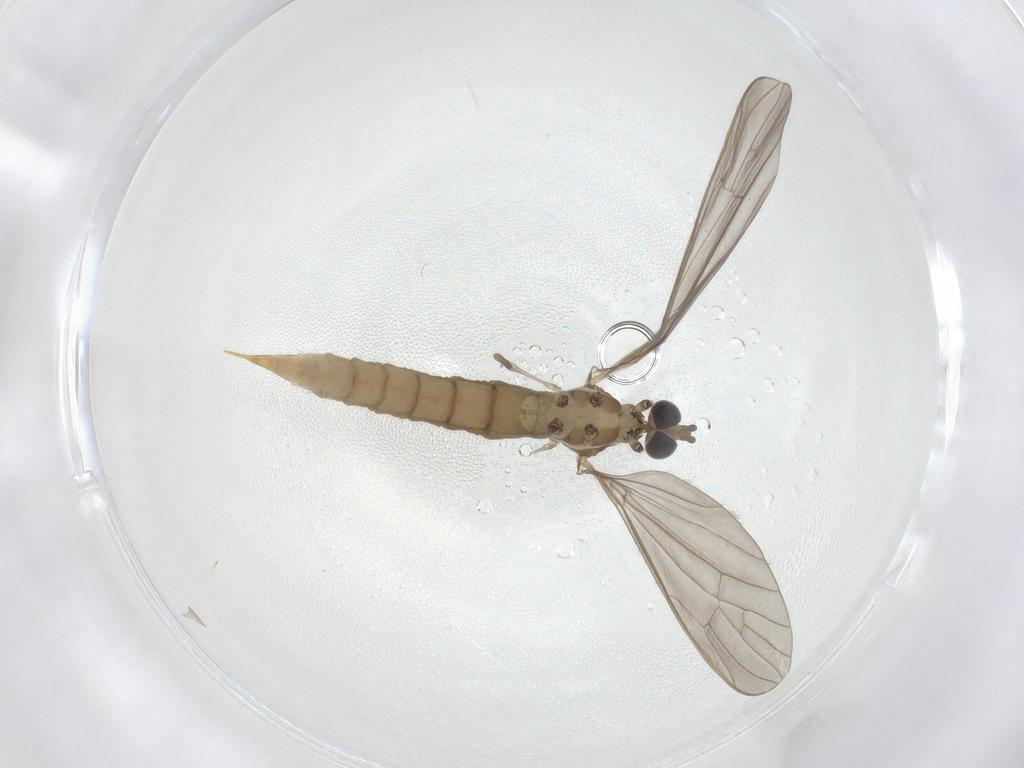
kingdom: Animalia
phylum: Arthropoda
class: Insecta
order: Diptera
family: Limoniidae
